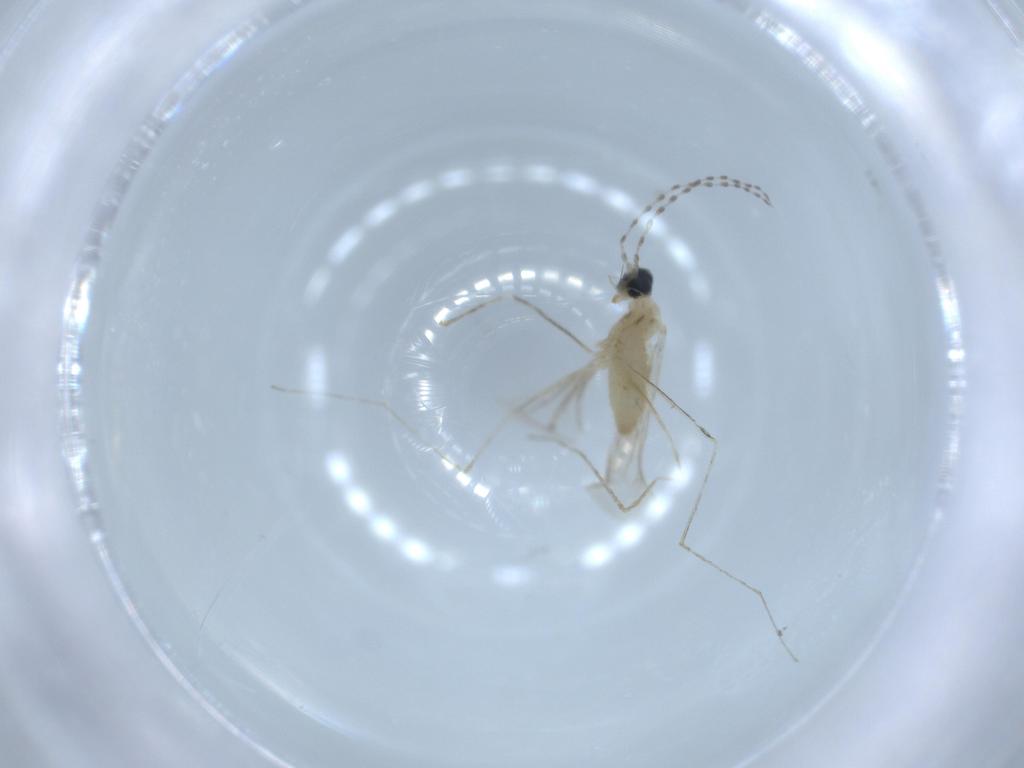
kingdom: Animalia
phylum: Arthropoda
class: Insecta
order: Diptera
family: Cecidomyiidae
